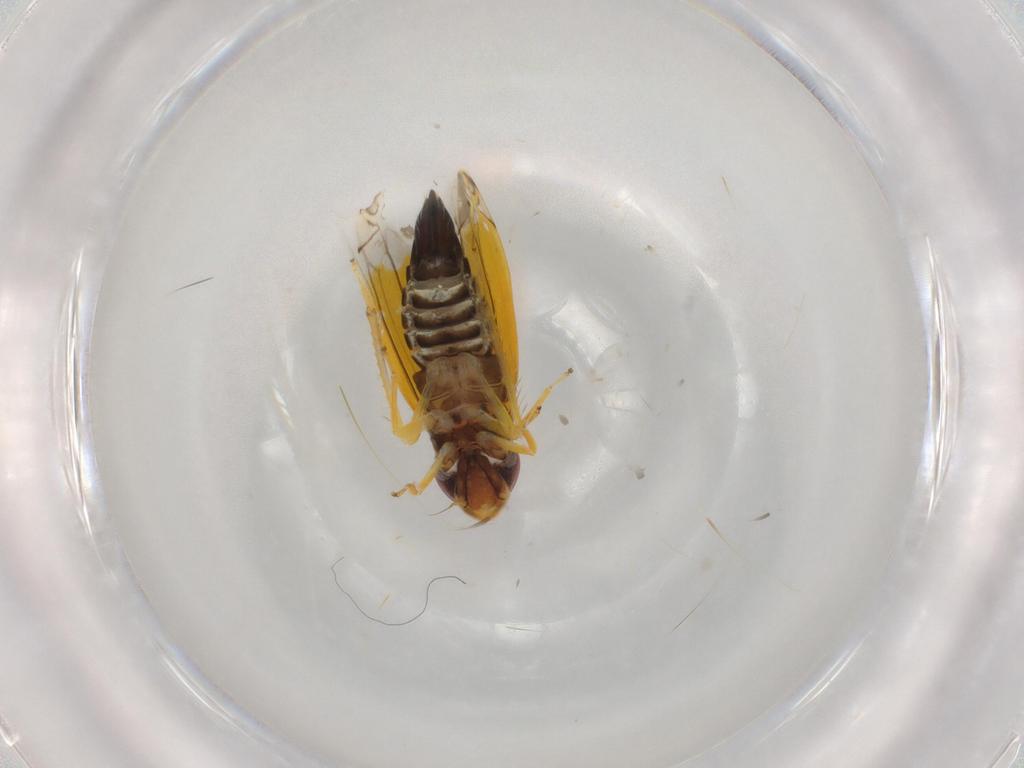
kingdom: Animalia
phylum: Arthropoda
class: Insecta
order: Hemiptera
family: Cicadellidae
